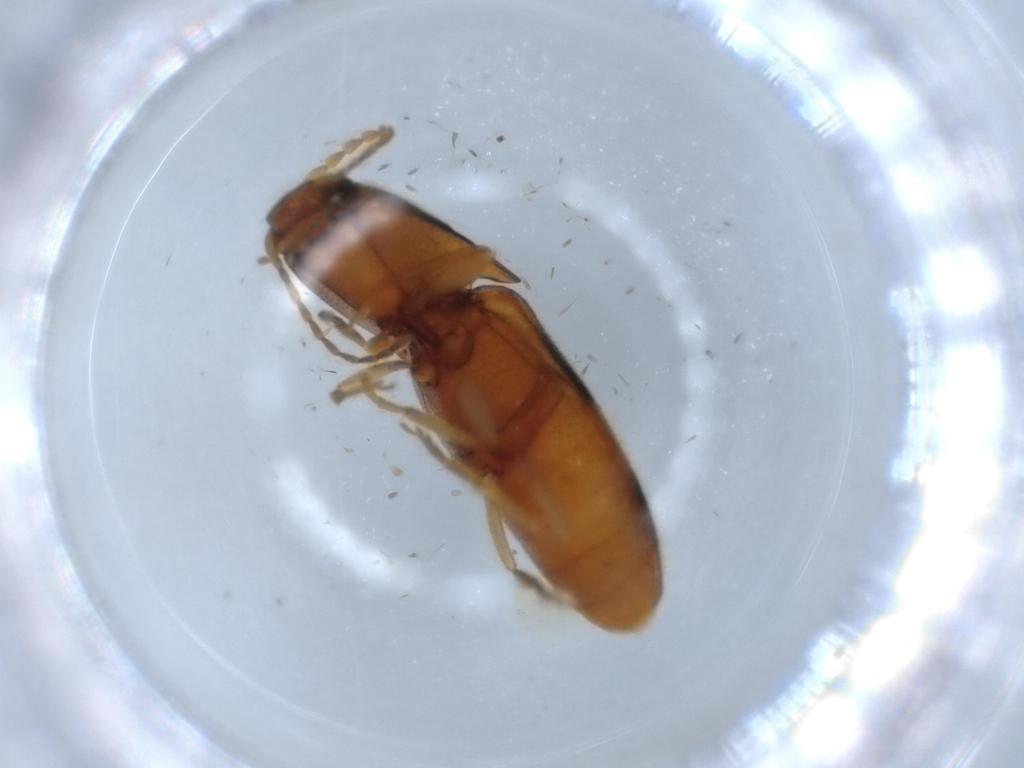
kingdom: Animalia
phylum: Arthropoda
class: Insecta
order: Coleoptera
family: Elateridae
